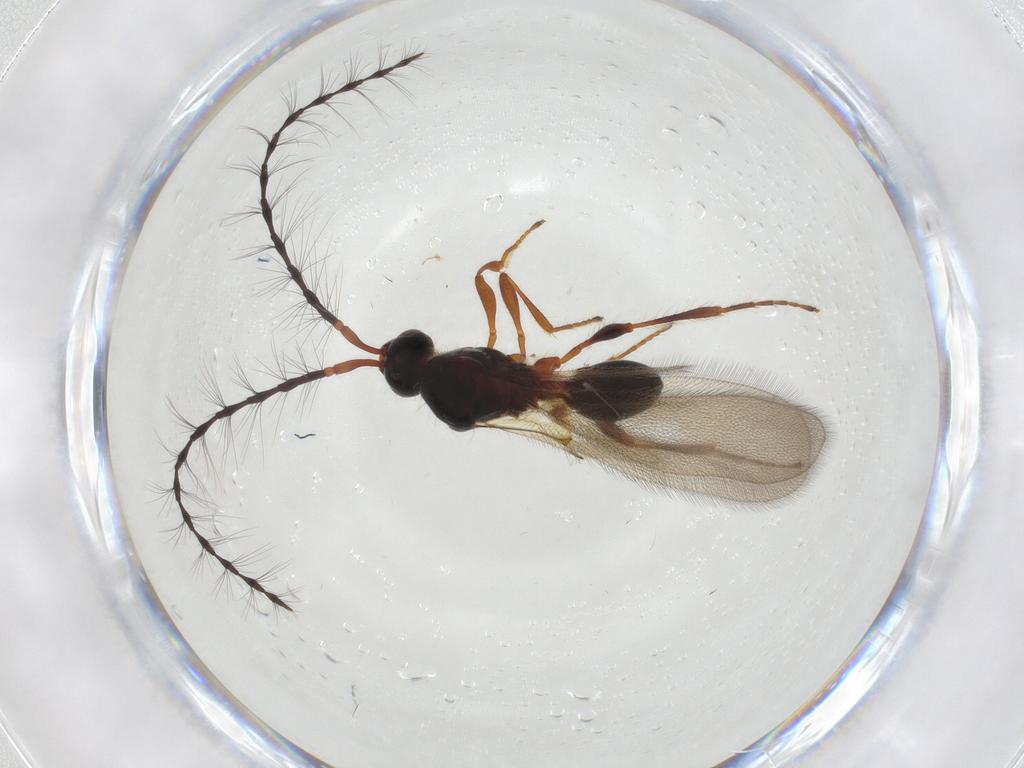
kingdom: Animalia
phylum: Arthropoda
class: Insecta
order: Hymenoptera
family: Diapriidae
